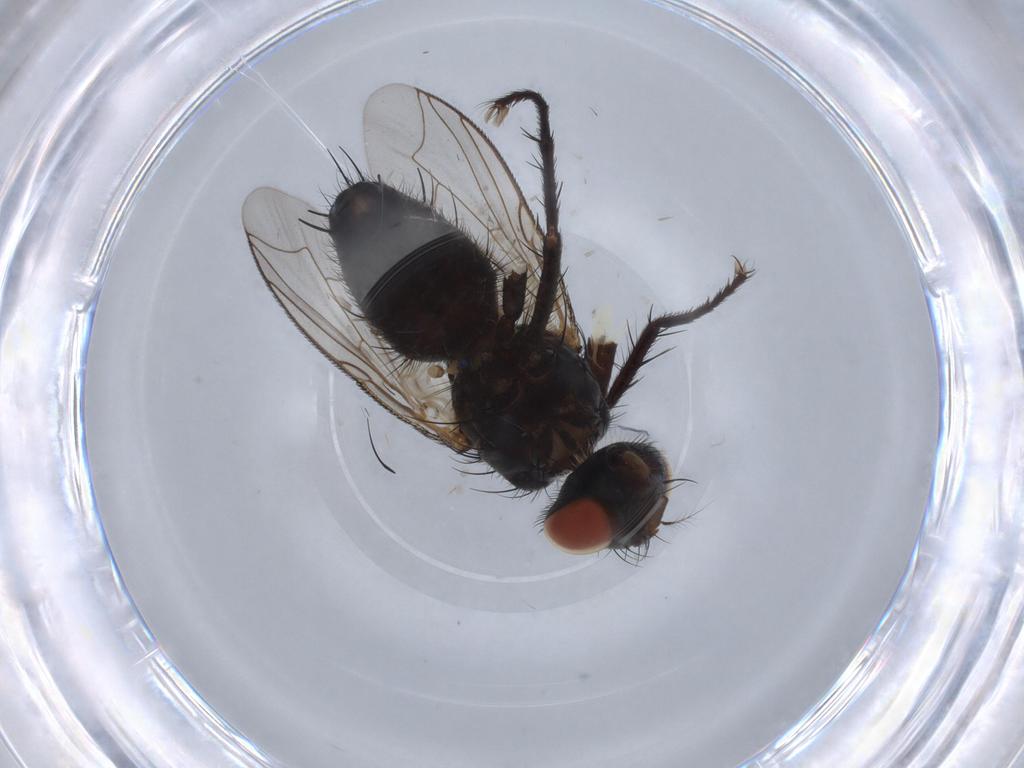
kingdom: Animalia
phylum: Arthropoda
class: Insecta
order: Diptera
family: Sarcophagidae
